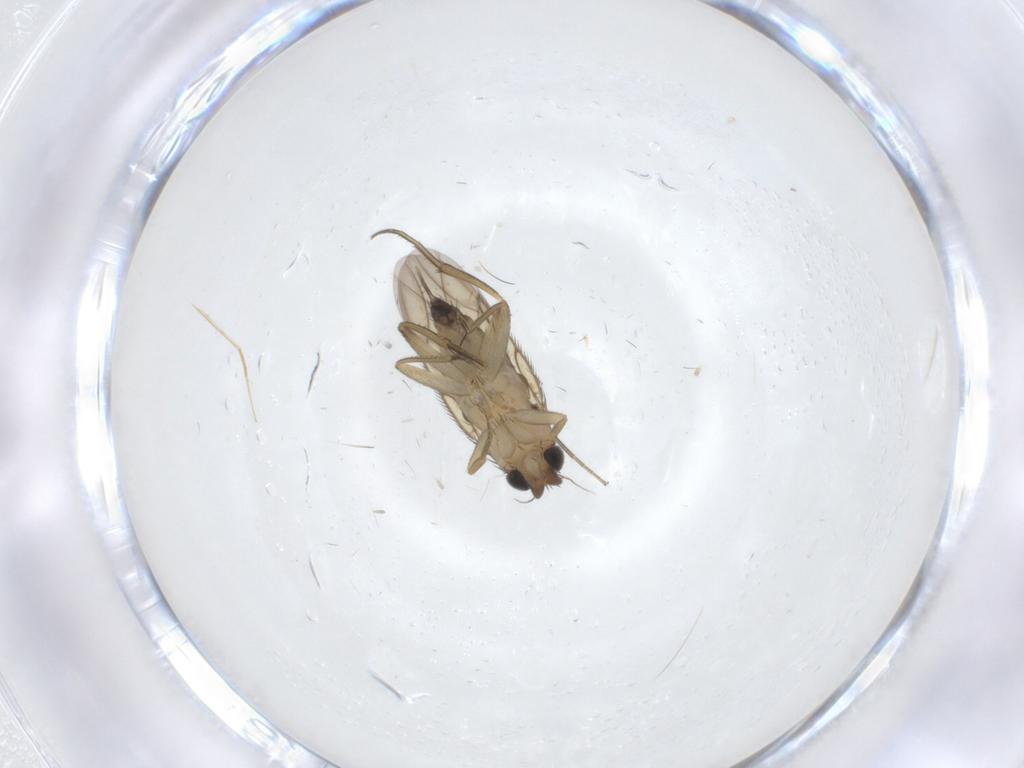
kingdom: Animalia
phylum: Arthropoda
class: Insecta
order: Diptera
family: Phoridae
